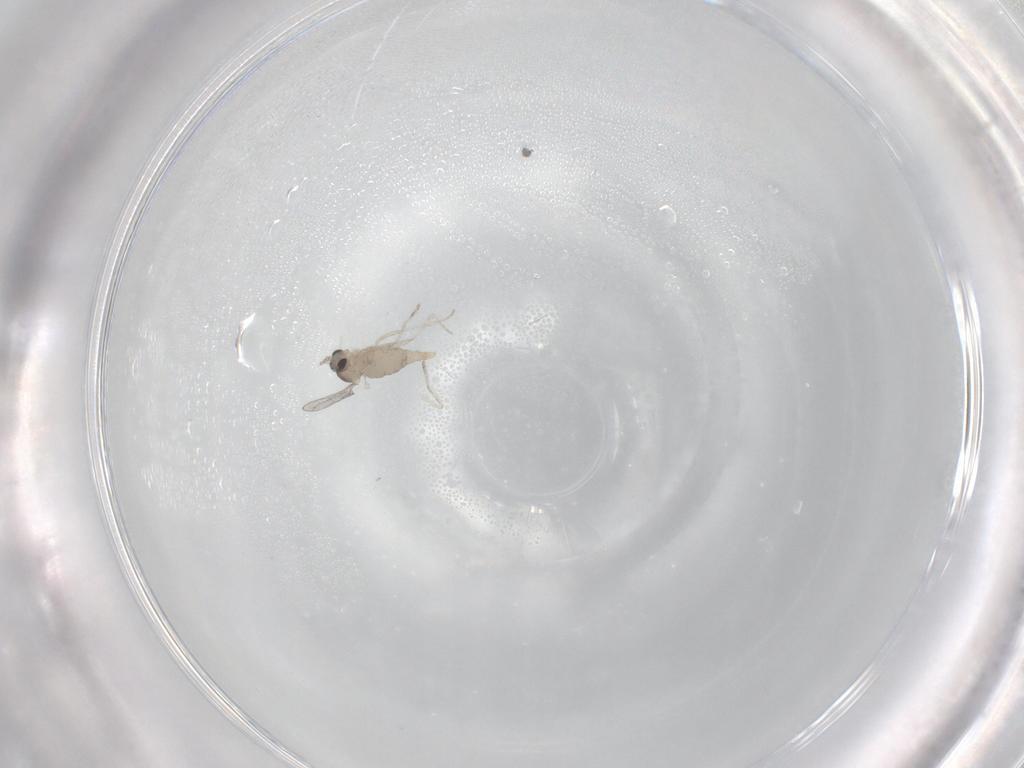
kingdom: Animalia
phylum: Arthropoda
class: Insecta
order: Diptera
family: Cecidomyiidae
